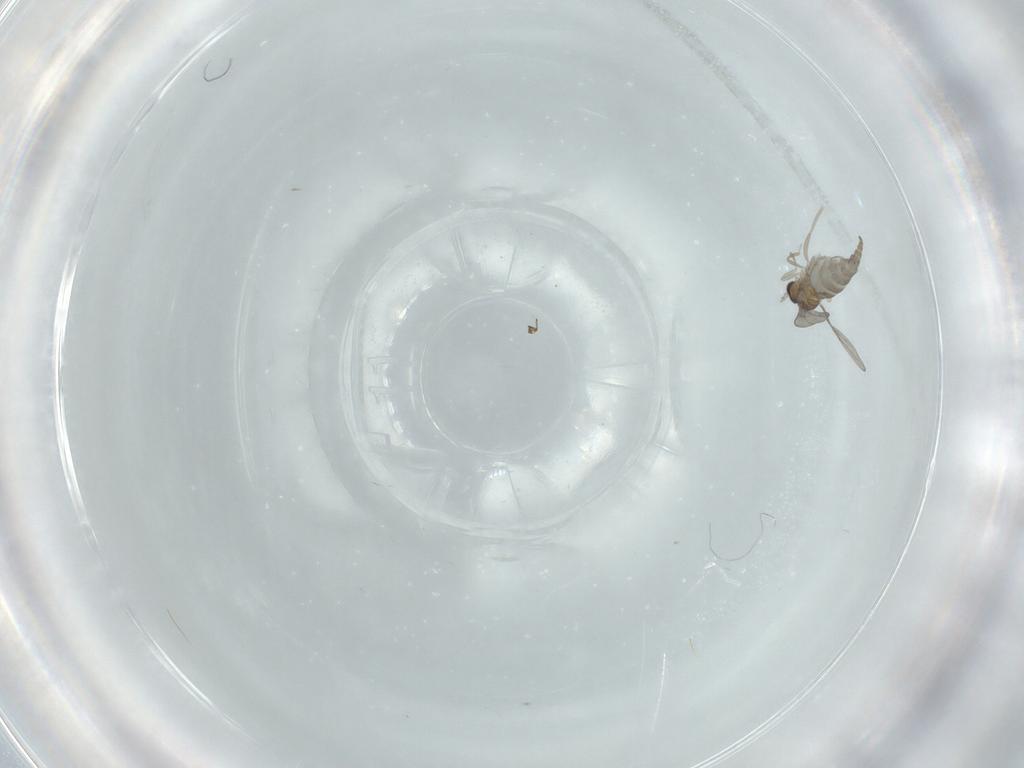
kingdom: Animalia
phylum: Arthropoda
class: Insecta
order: Diptera
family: Cecidomyiidae
